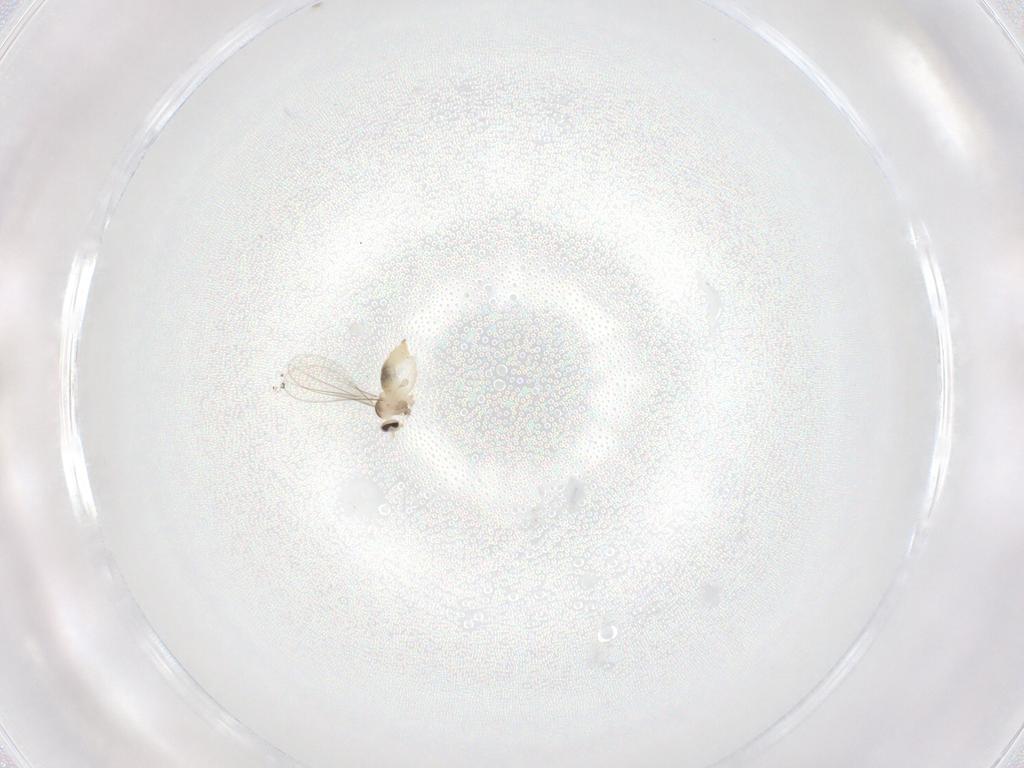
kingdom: Animalia
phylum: Arthropoda
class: Insecta
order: Diptera
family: Cecidomyiidae
